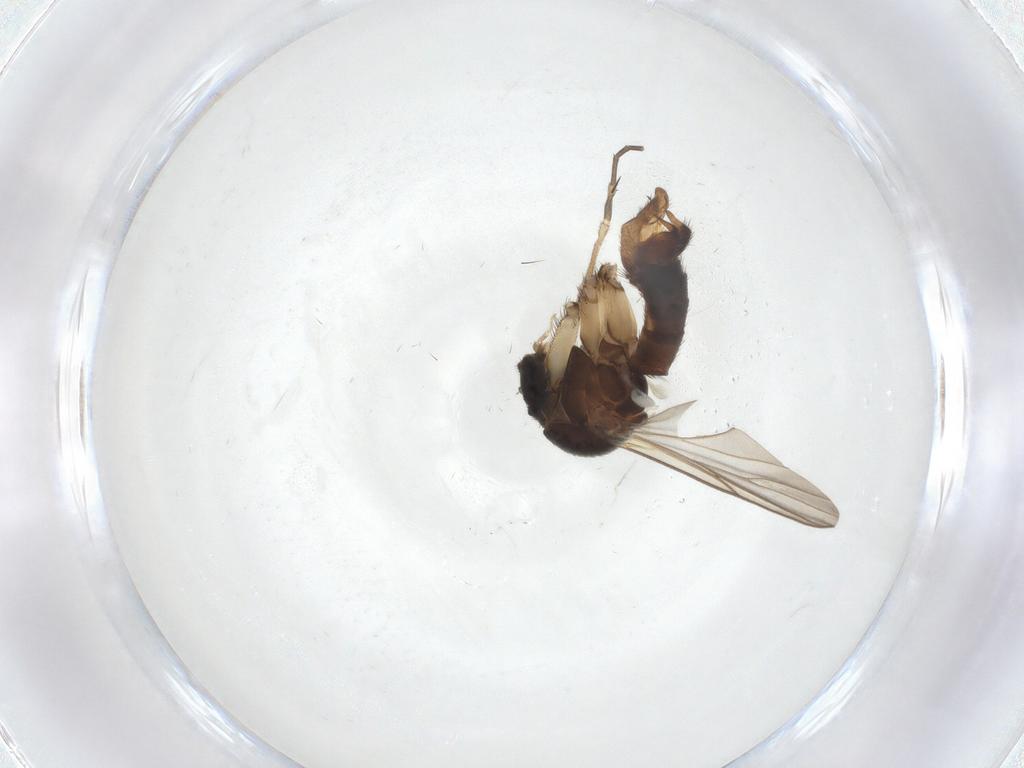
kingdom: Animalia
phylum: Arthropoda
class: Insecta
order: Diptera
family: Mycetophilidae
